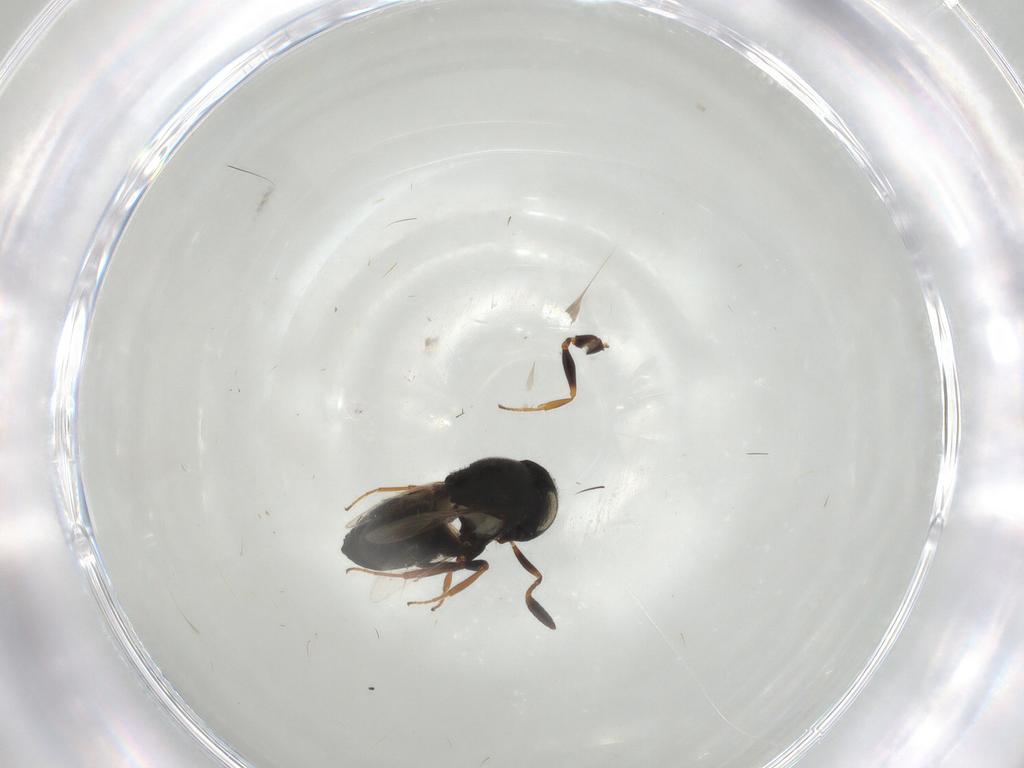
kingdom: Animalia
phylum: Arthropoda
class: Insecta
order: Hymenoptera
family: Scelionidae
